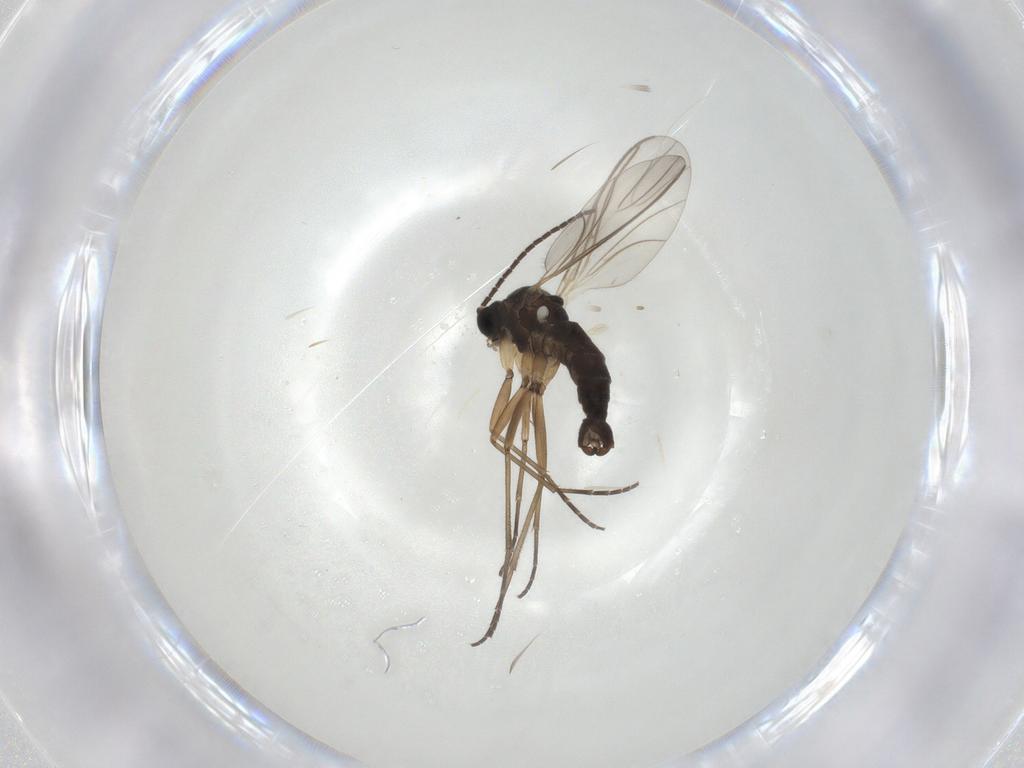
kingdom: Animalia
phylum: Arthropoda
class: Insecta
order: Diptera
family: Sciaridae
